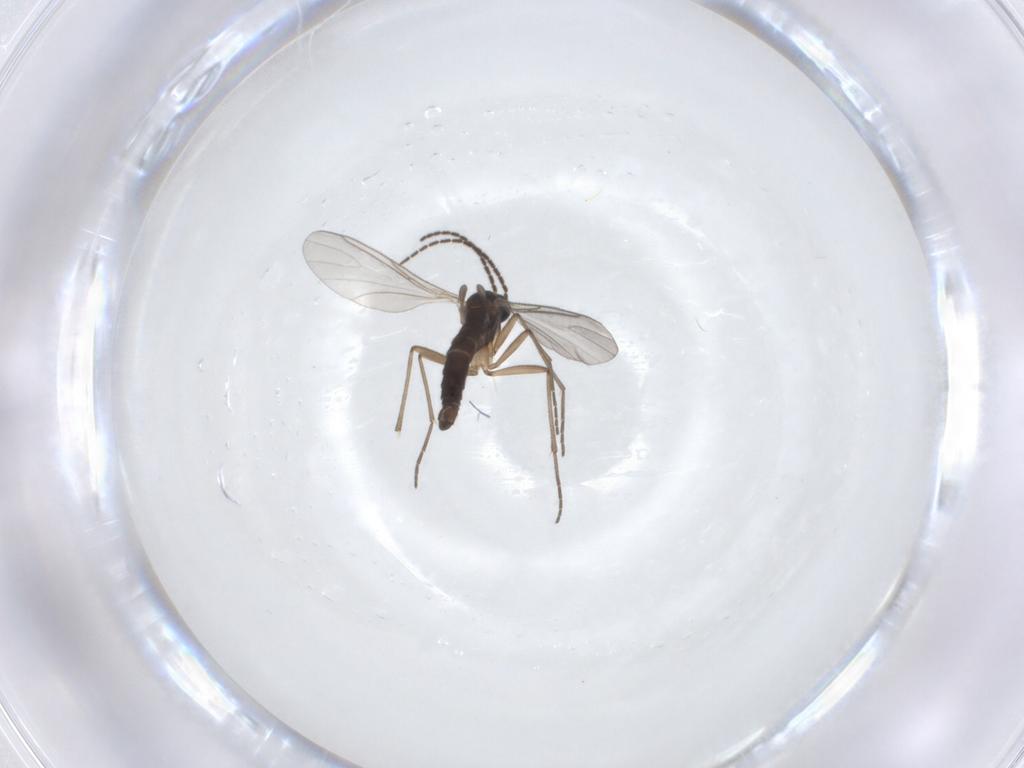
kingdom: Animalia
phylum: Arthropoda
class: Insecta
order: Diptera
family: Sciaridae
